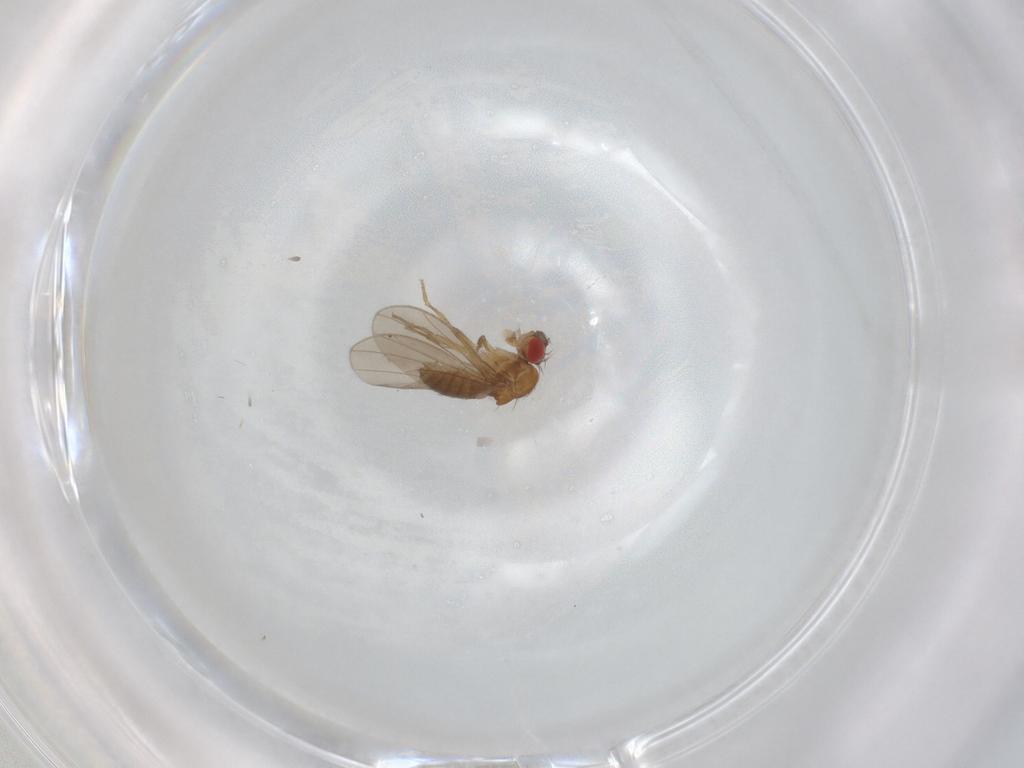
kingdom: Animalia
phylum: Arthropoda
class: Insecta
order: Diptera
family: Drosophilidae
